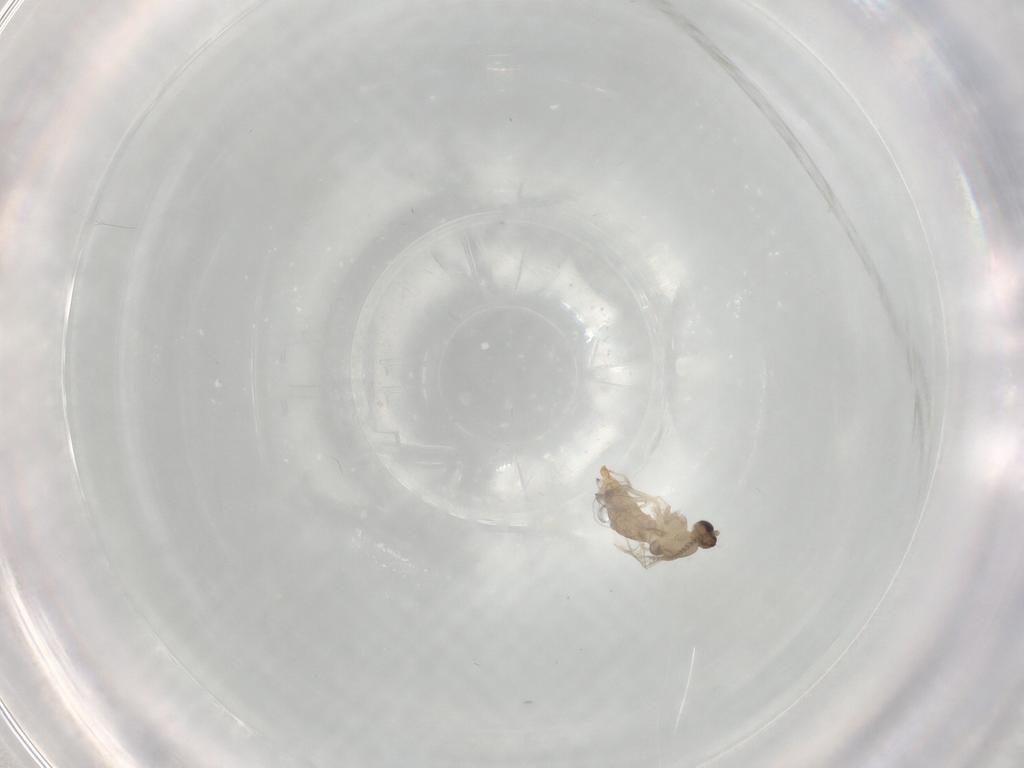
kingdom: Animalia
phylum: Arthropoda
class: Insecta
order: Diptera
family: Cecidomyiidae
